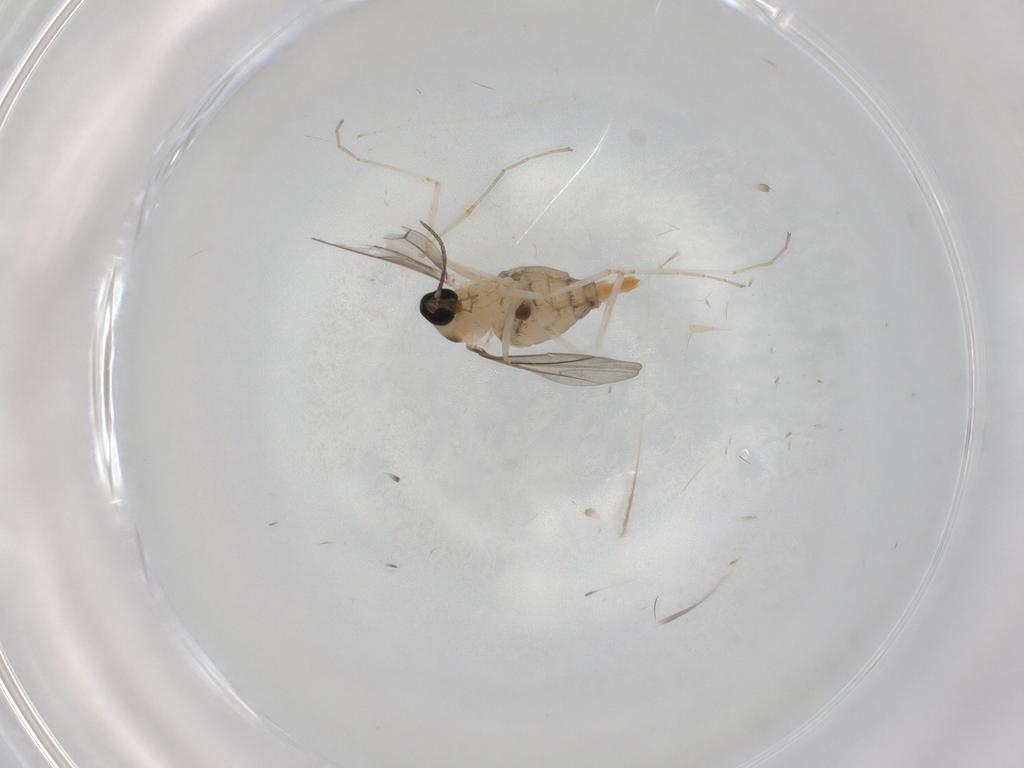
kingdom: Animalia
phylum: Arthropoda
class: Insecta
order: Diptera
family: Cecidomyiidae
